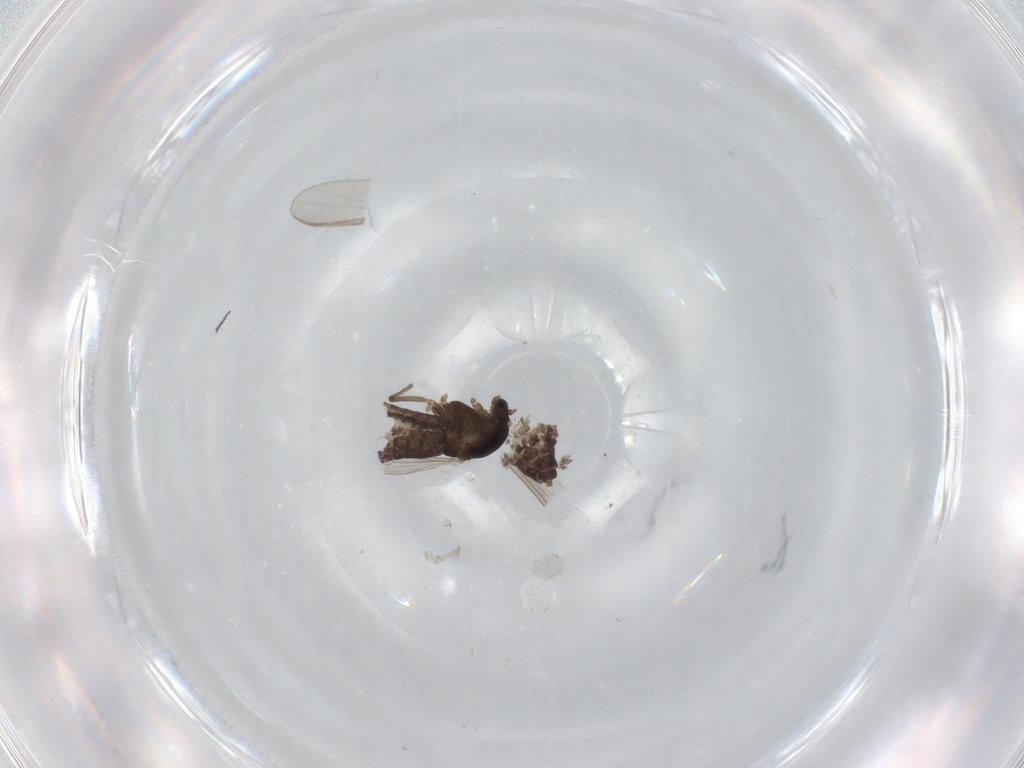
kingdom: Animalia
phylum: Arthropoda
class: Insecta
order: Diptera
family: Chironomidae
